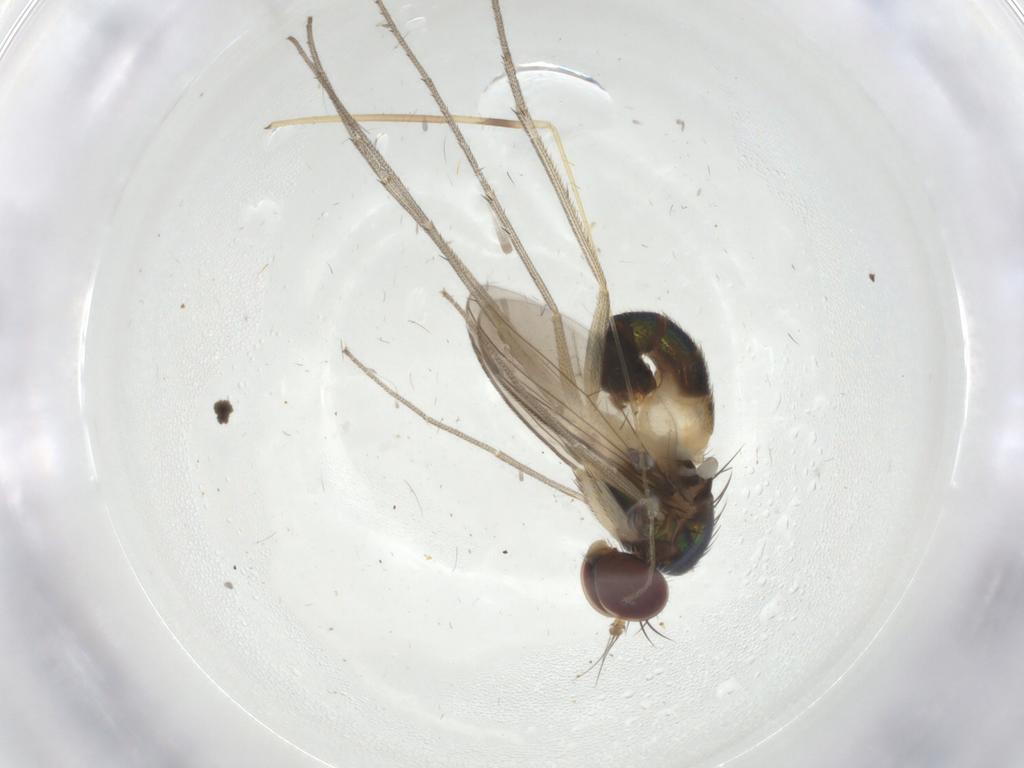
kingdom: Animalia
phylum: Arthropoda
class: Insecta
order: Diptera
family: Limoniidae
